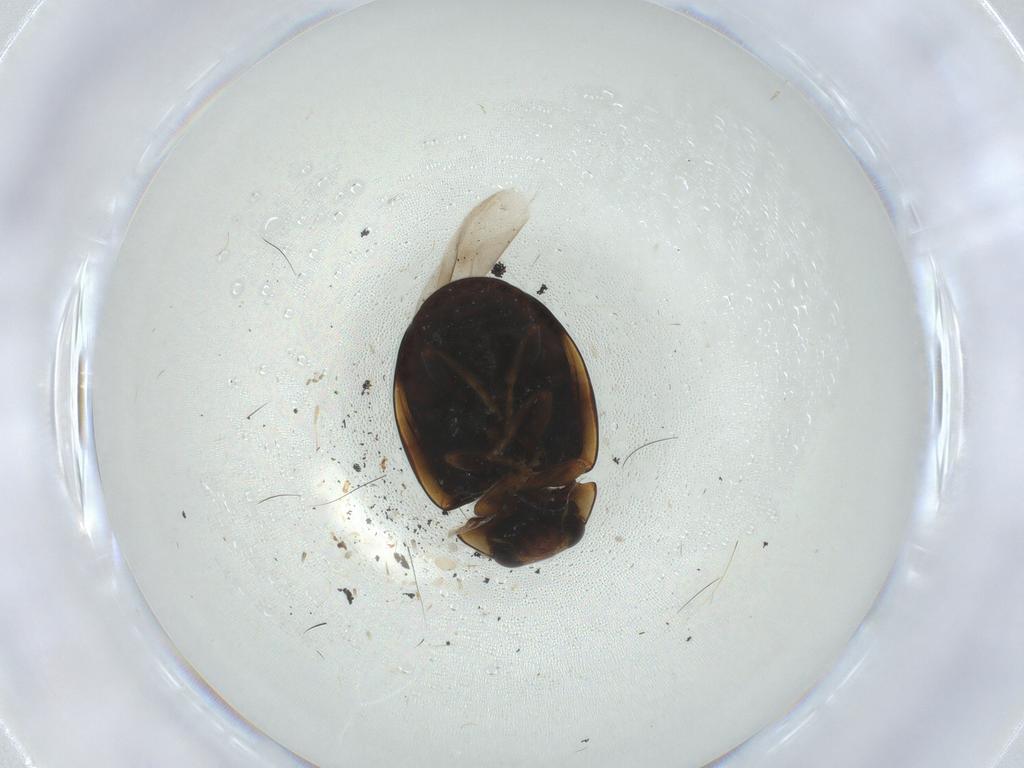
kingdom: Animalia
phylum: Arthropoda
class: Insecta
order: Coleoptera
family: Coccinellidae
